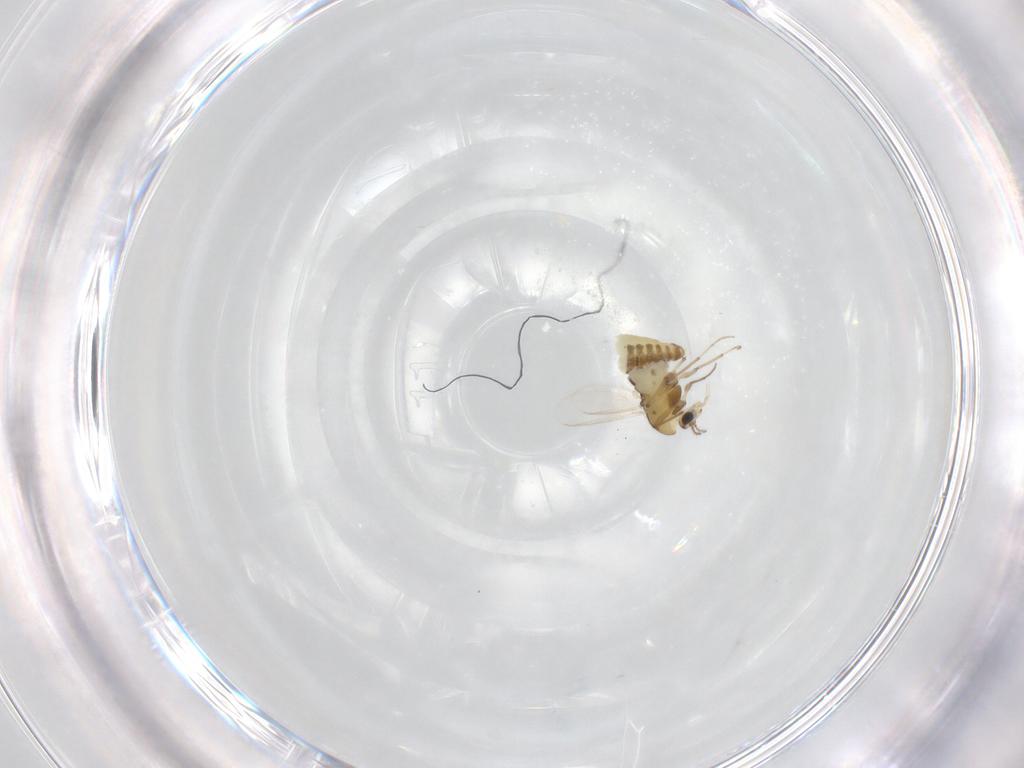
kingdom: Animalia
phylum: Arthropoda
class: Insecta
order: Diptera
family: Chironomidae
